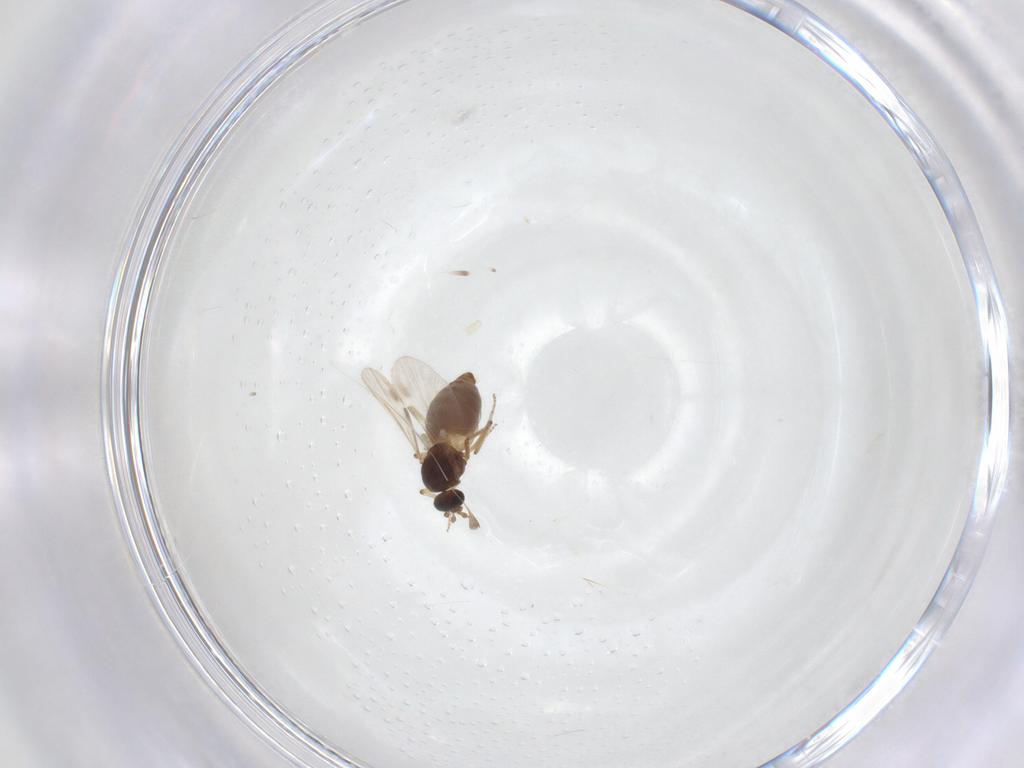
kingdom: Animalia
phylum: Arthropoda
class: Insecta
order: Diptera
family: Ceratopogonidae
